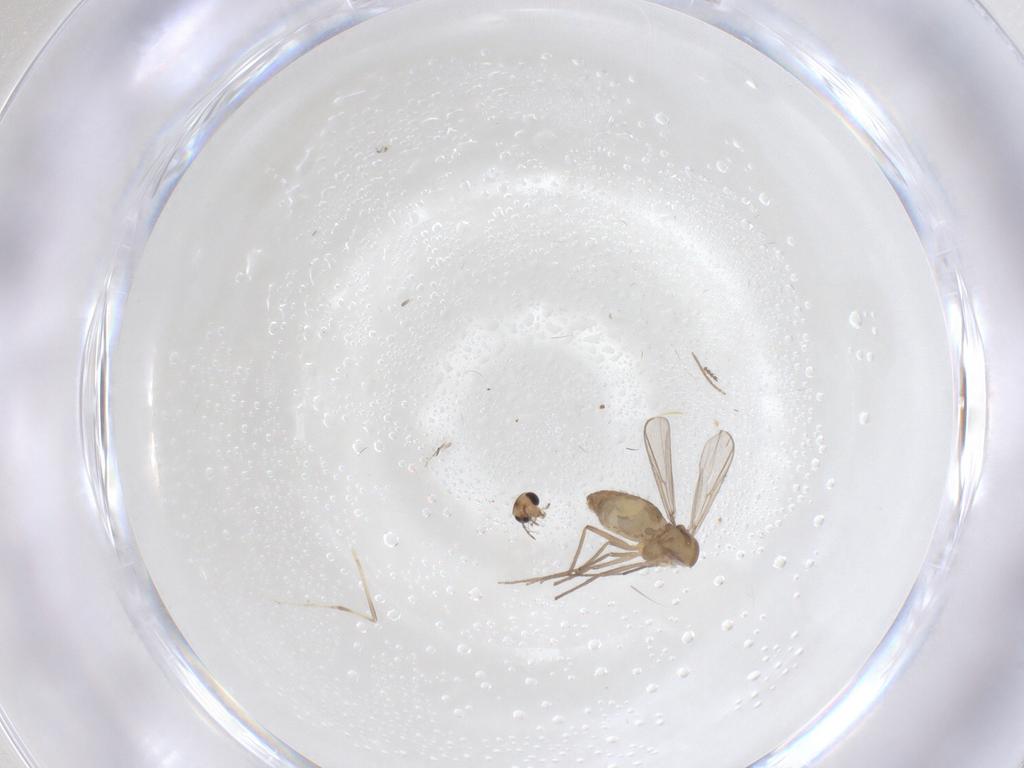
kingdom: Animalia
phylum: Arthropoda
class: Insecta
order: Diptera
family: Chironomidae
